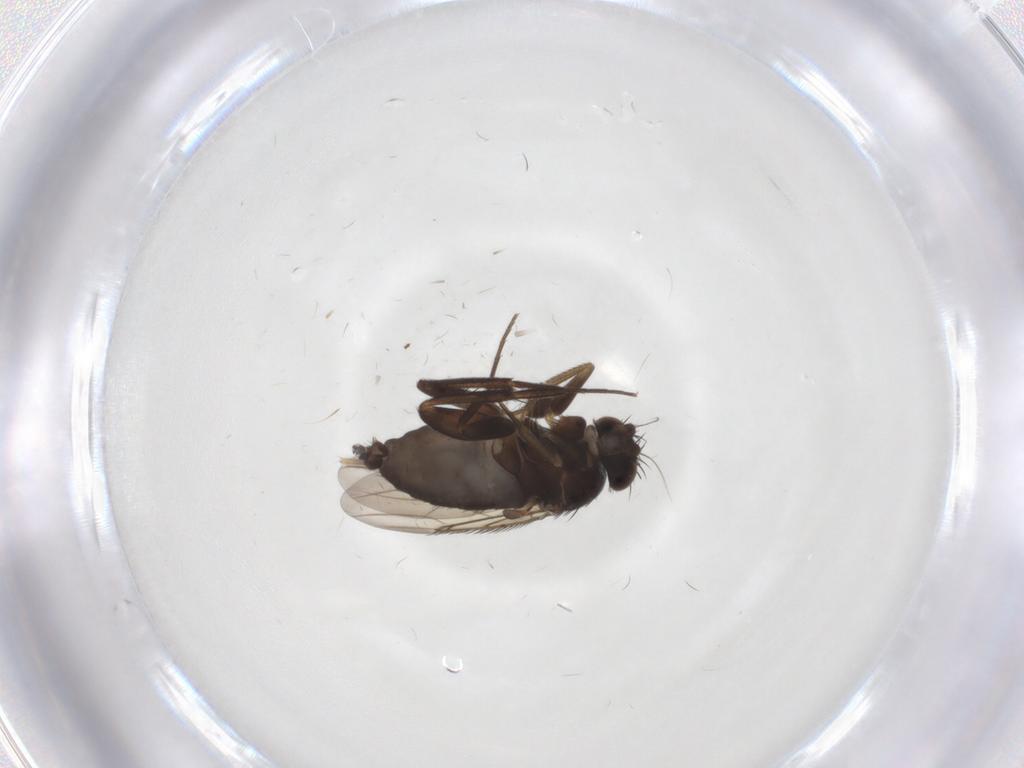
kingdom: Animalia
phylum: Arthropoda
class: Insecta
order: Diptera
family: Phoridae
